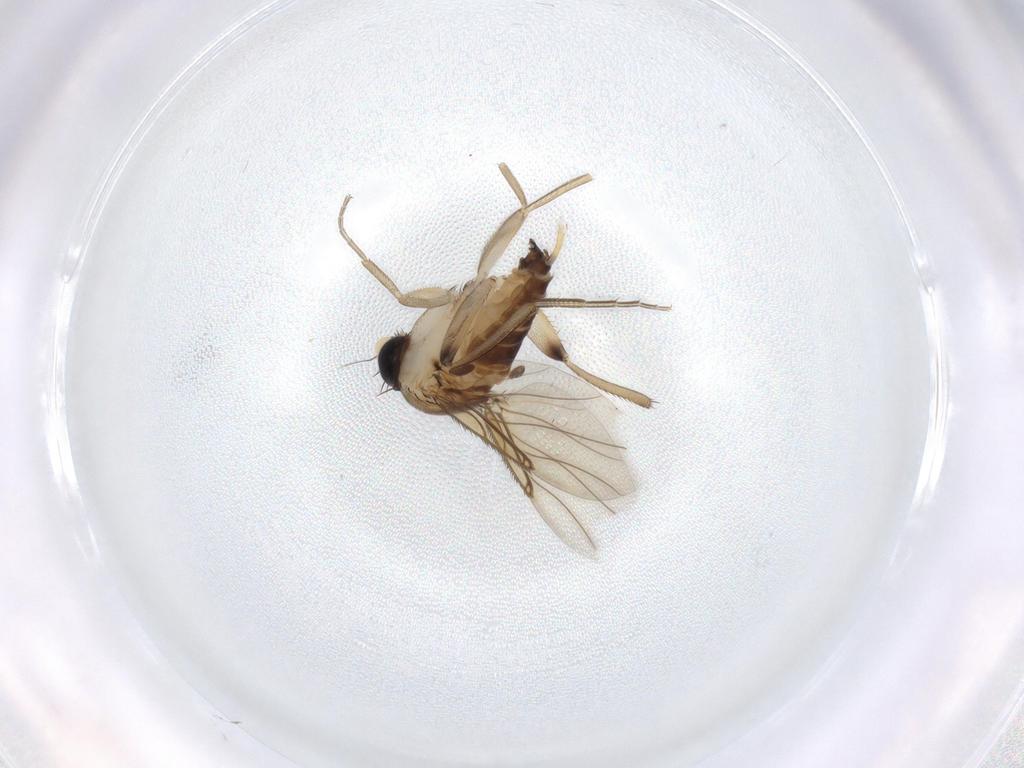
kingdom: Animalia
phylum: Arthropoda
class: Insecta
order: Diptera
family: Phoridae
